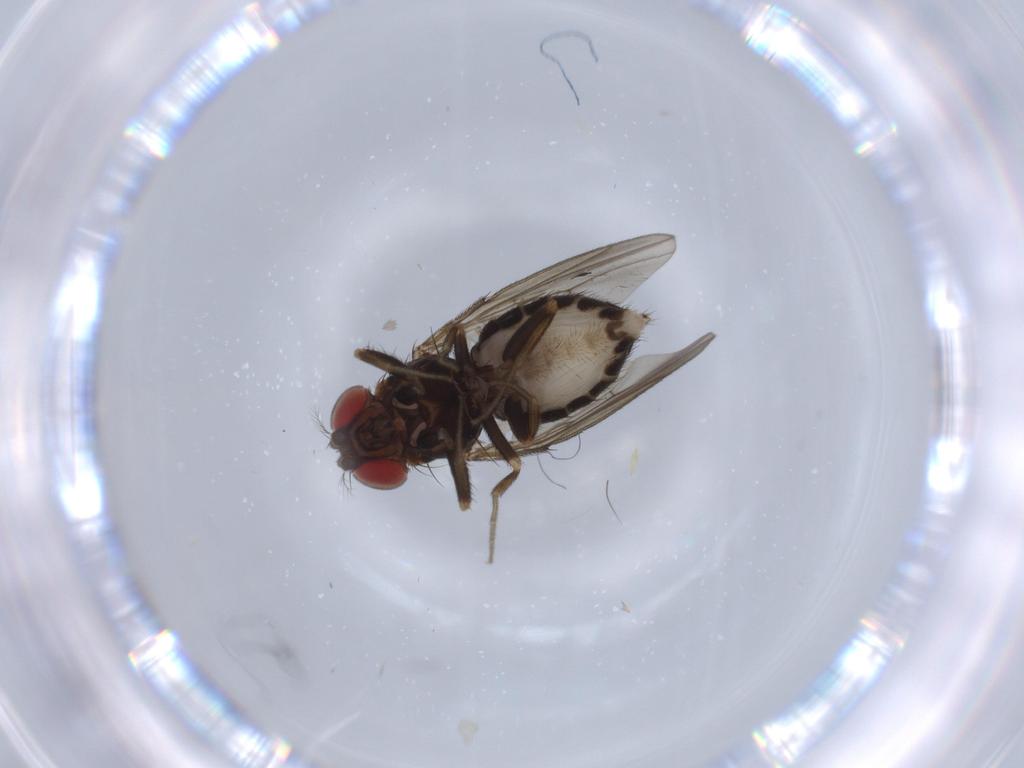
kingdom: Animalia
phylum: Arthropoda
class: Insecta
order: Diptera
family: Drosophilidae
